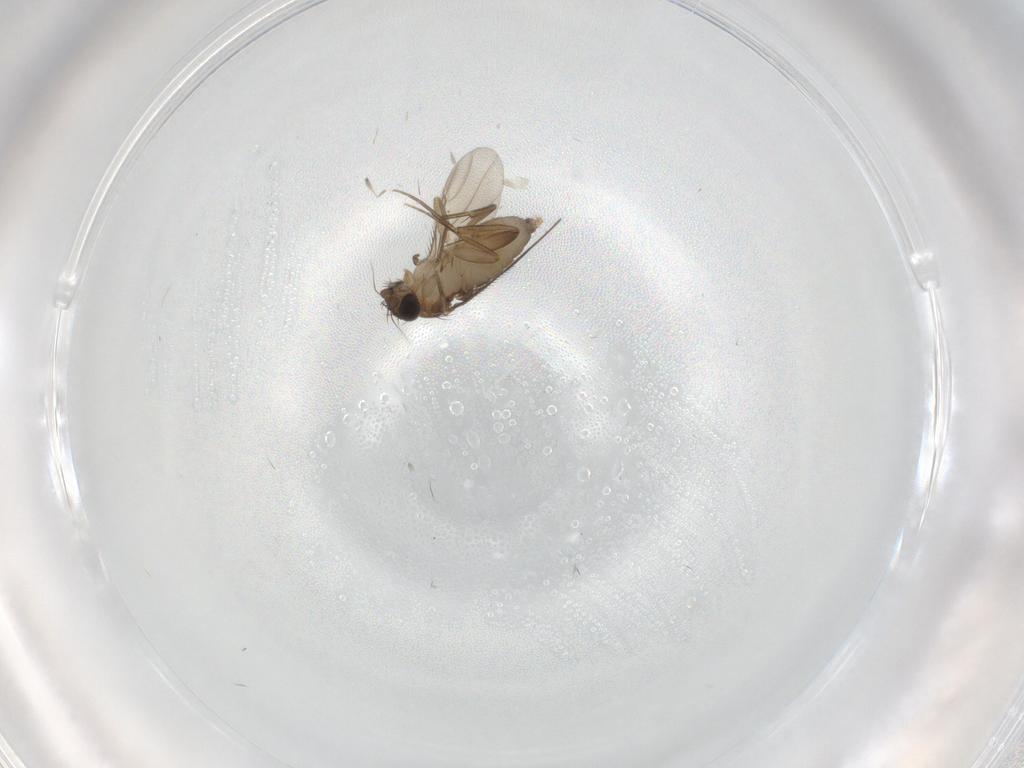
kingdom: Animalia
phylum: Arthropoda
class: Insecta
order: Diptera
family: Phoridae
